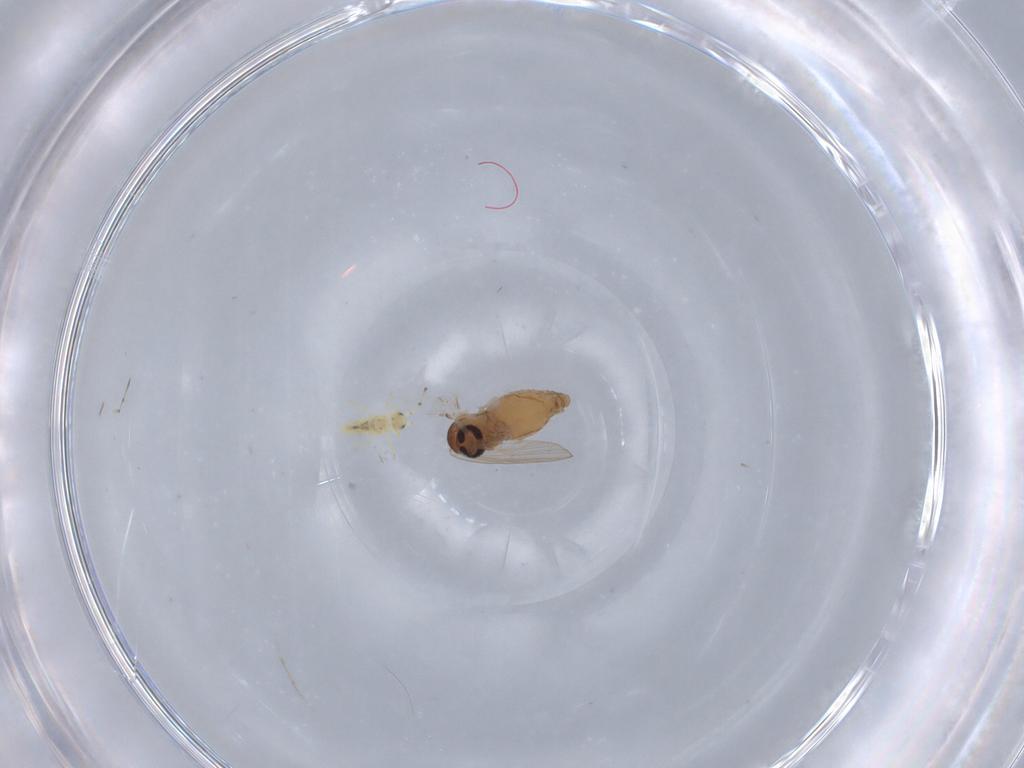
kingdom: Animalia
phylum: Arthropoda
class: Insecta
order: Diptera
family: Psychodidae
